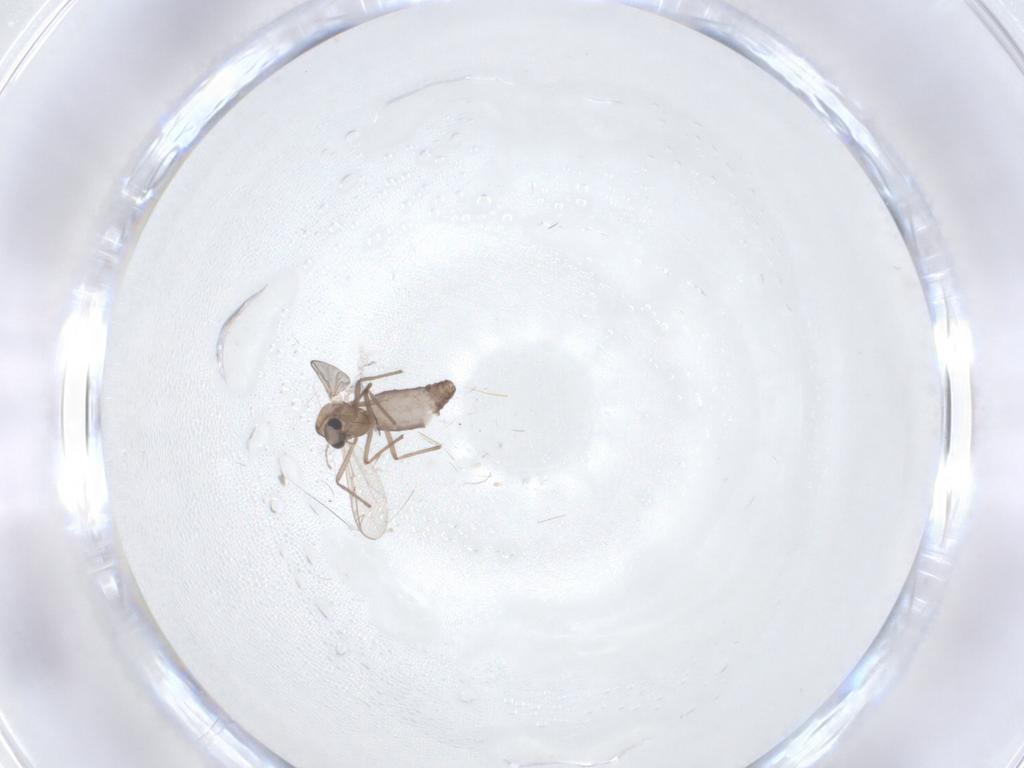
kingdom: Animalia
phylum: Arthropoda
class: Insecta
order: Diptera
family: Chironomidae
